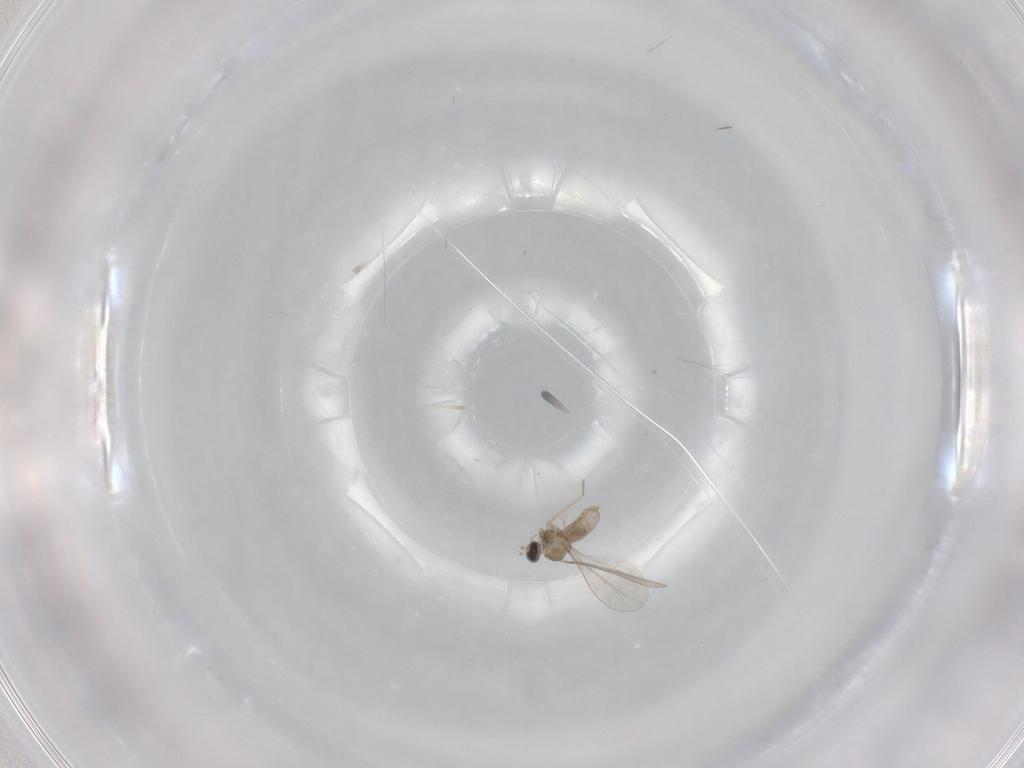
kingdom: Animalia
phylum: Arthropoda
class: Insecta
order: Diptera
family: Cecidomyiidae
